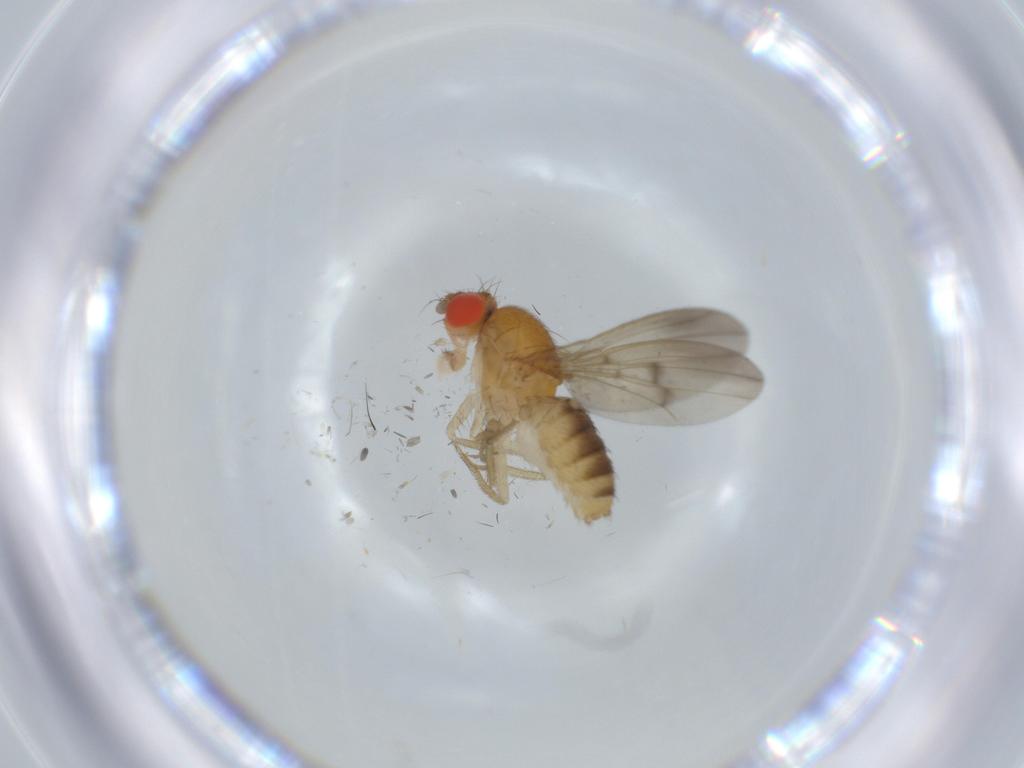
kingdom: Animalia
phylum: Arthropoda
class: Insecta
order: Diptera
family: Drosophilidae
